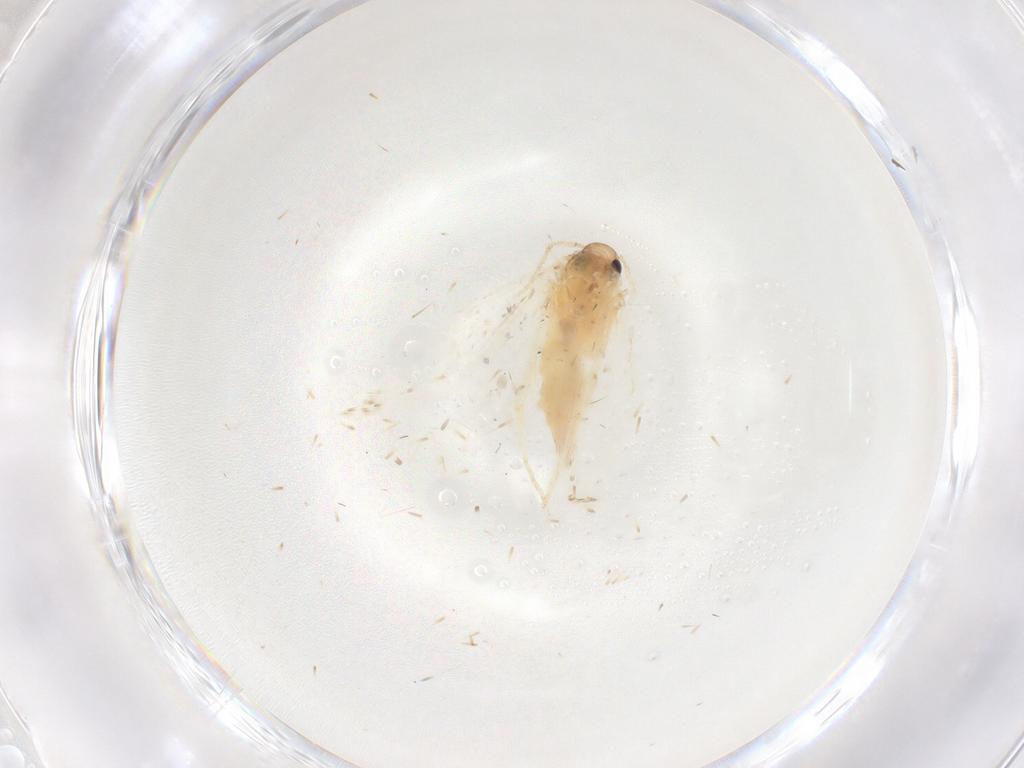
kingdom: Animalia
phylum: Arthropoda
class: Insecta
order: Lepidoptera
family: Gelechiidae
